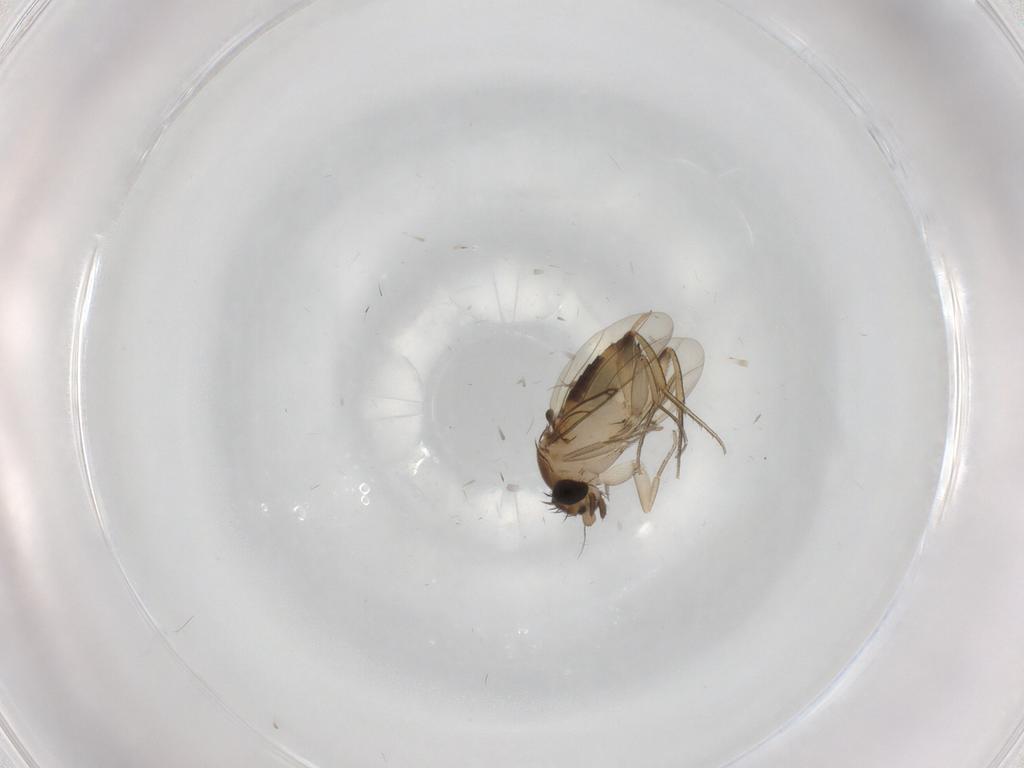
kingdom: Animalia
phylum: Arthropoda
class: Insecta
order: Diptera
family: Phoridae
